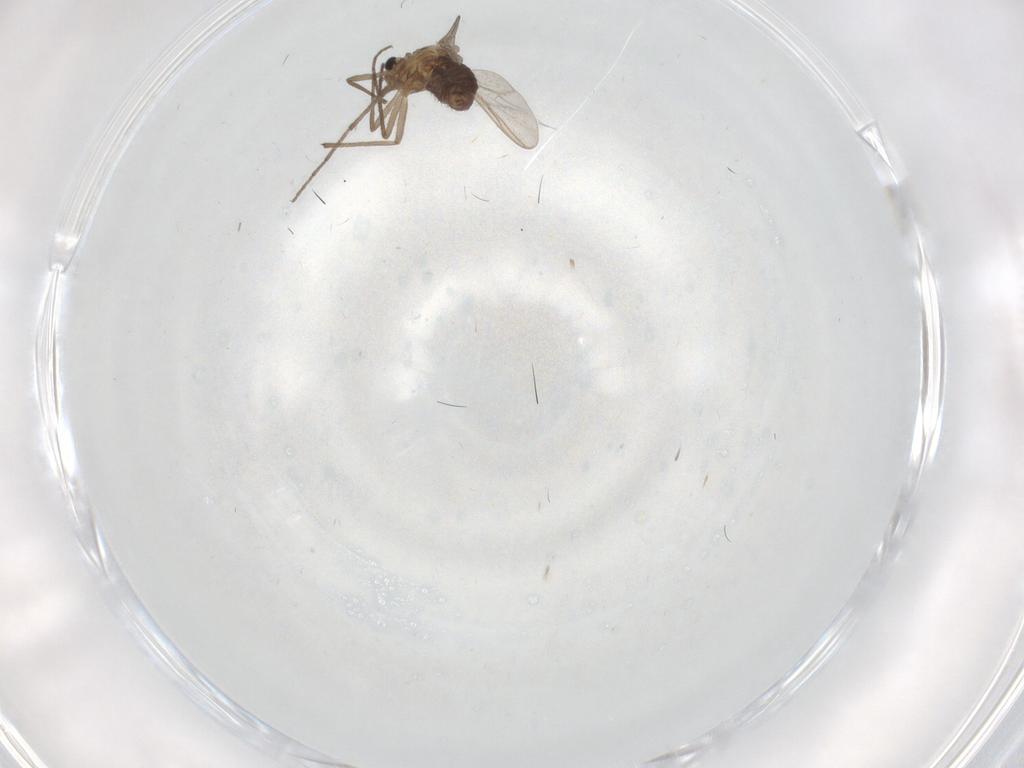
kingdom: Animalia
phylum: Arthropoda
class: Insecta
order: Diptera
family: Chironomidae
